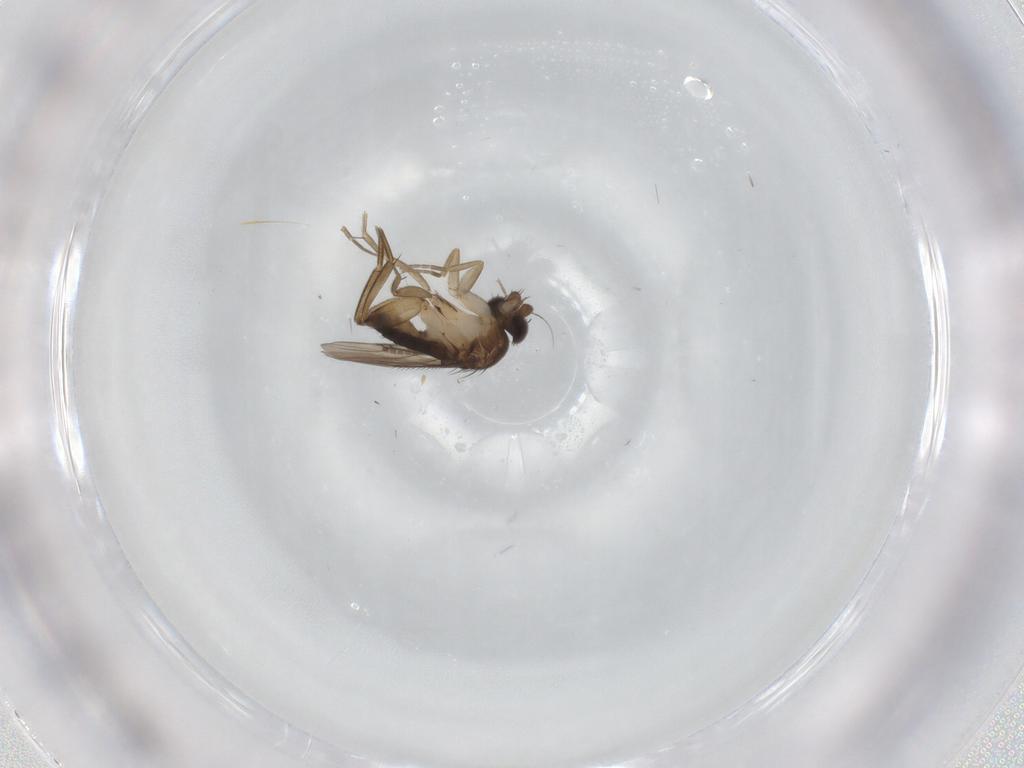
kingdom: Animalia
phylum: Arthropoda
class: Insecta
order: Diptera
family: Phoridae
